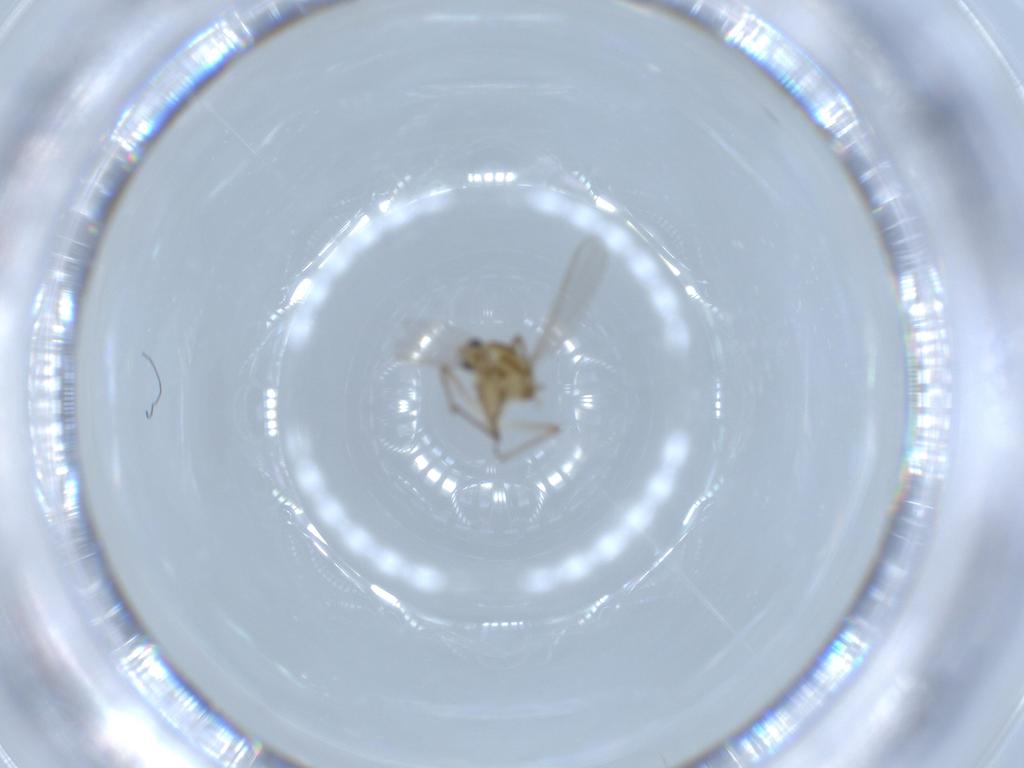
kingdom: Animalia
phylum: Arthropoda
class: Insecta
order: Diptera
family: Chironomidae
